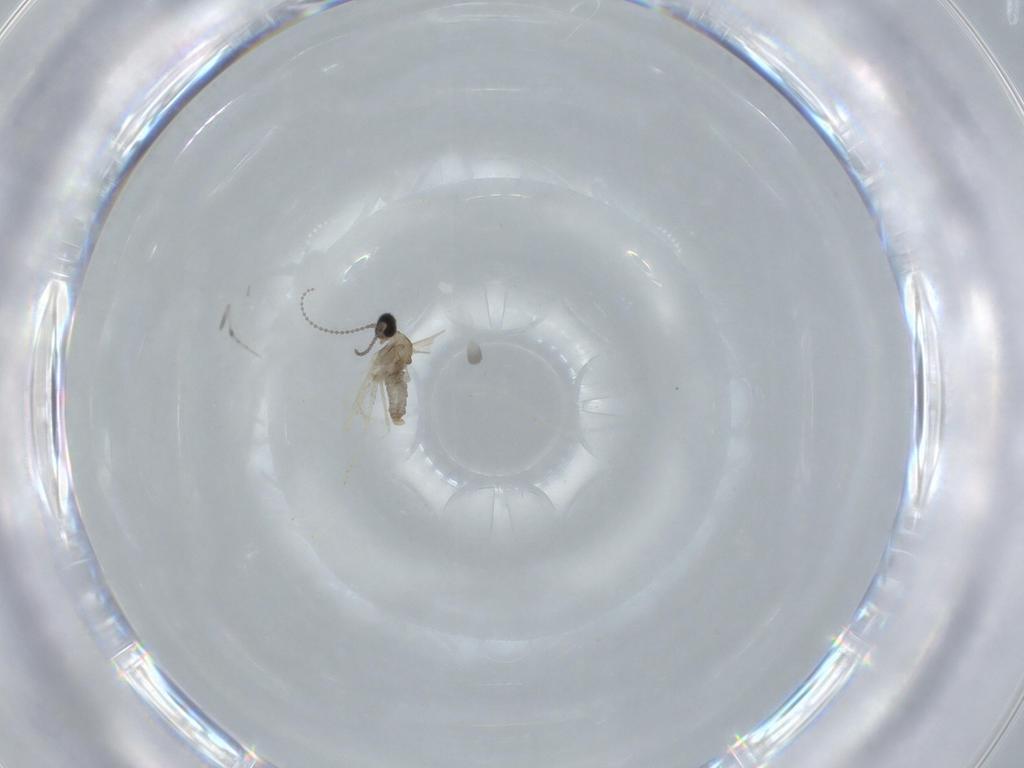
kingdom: Animalia
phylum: Arthropoda
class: Insecta
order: Diptera
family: Cecidomyiidae
